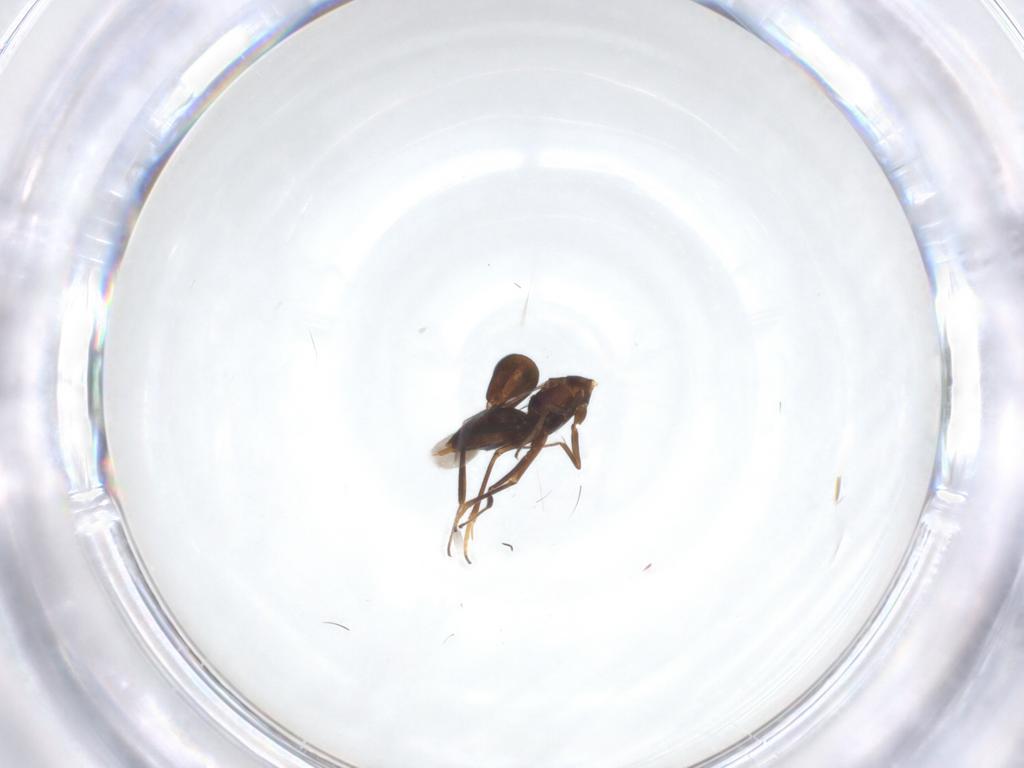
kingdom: Animalia
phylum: Arthropoda
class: Insecta
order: Hymenoptera
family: Encyrtidae
